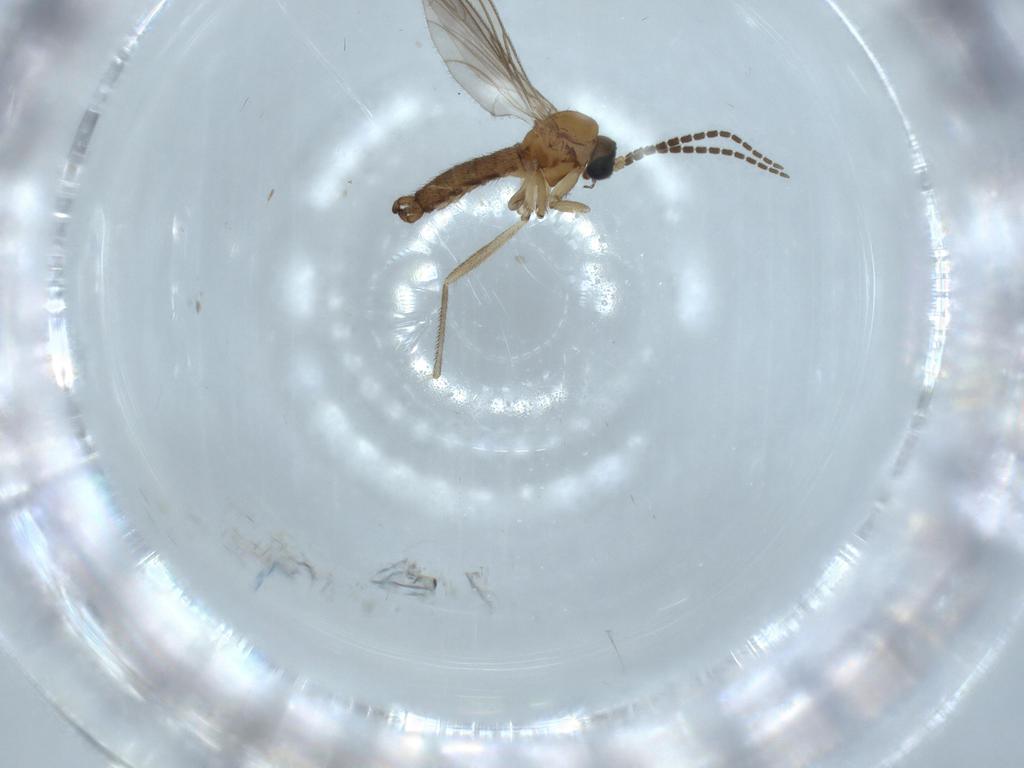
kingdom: Animalia
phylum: Arthropoda
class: Insecta
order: Diptera
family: Sciaridae
